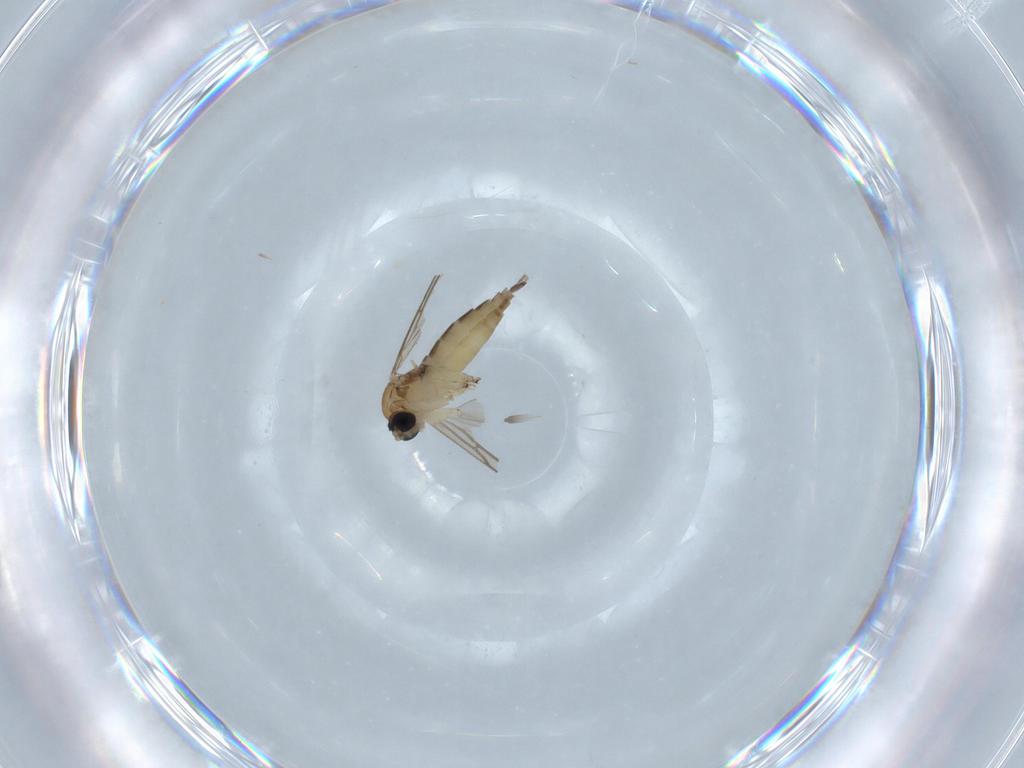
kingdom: Animalia
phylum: Arthropoda
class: Insecta
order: Diptera
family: Sciaridae
